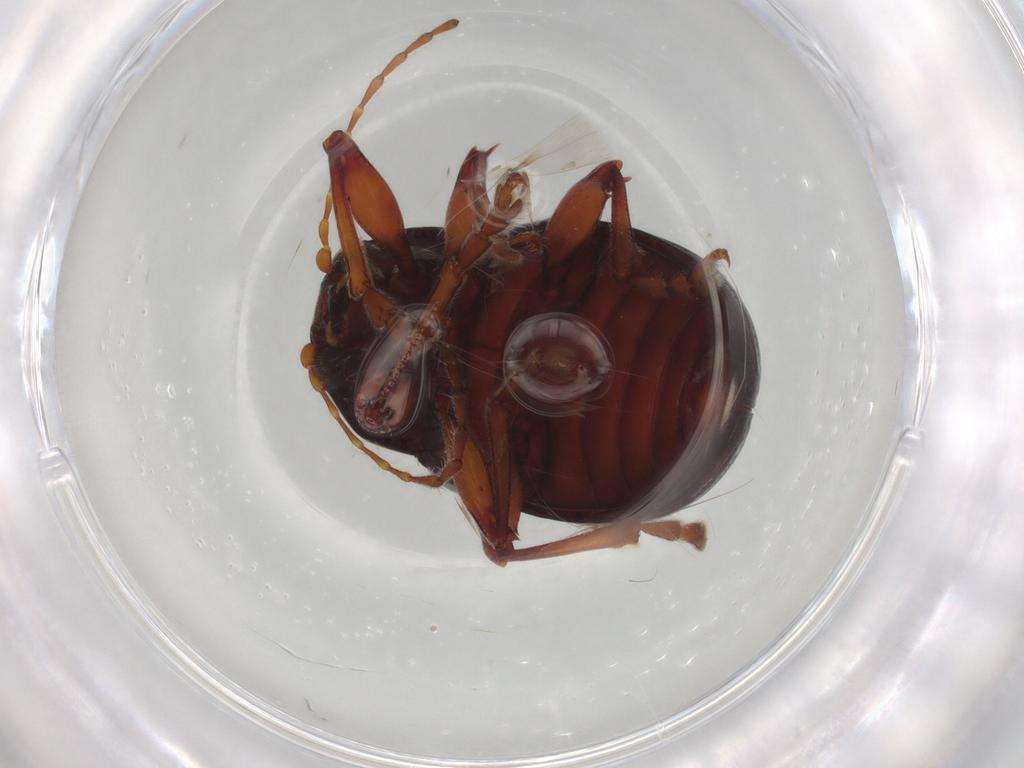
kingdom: Animalia
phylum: Arthropoda
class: Insecta
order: Coleoptera
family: Chrysomelidae
